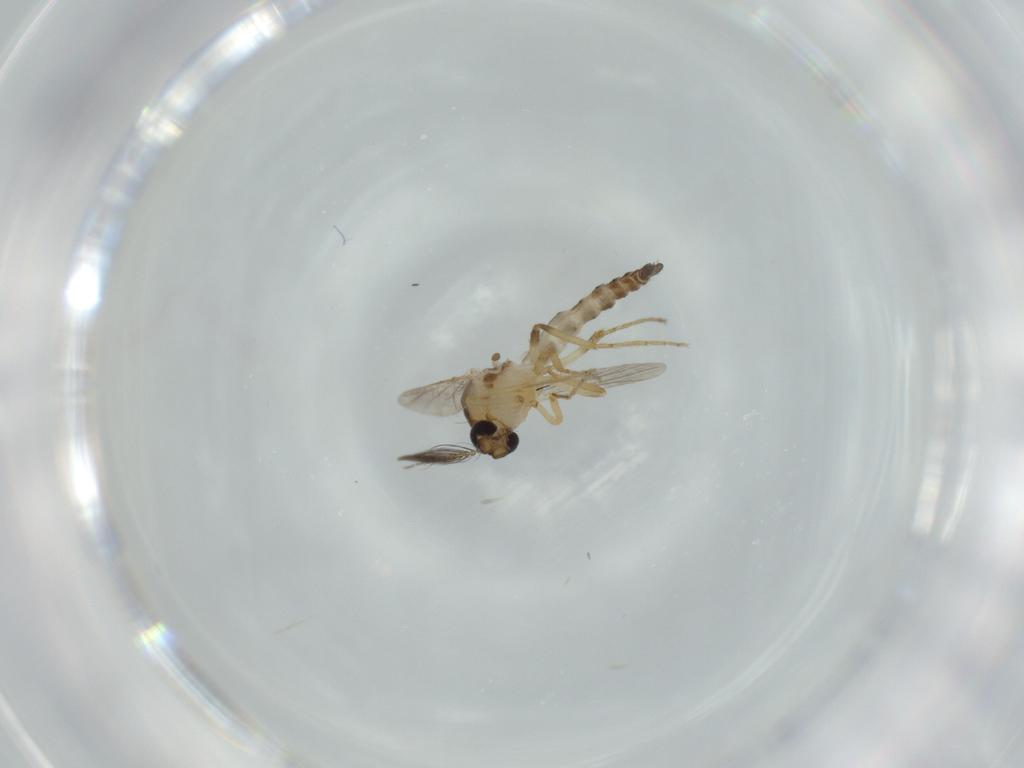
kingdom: Animalia
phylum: Arthropoda
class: Insecta
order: Diptera
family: Ceratopogonidae
